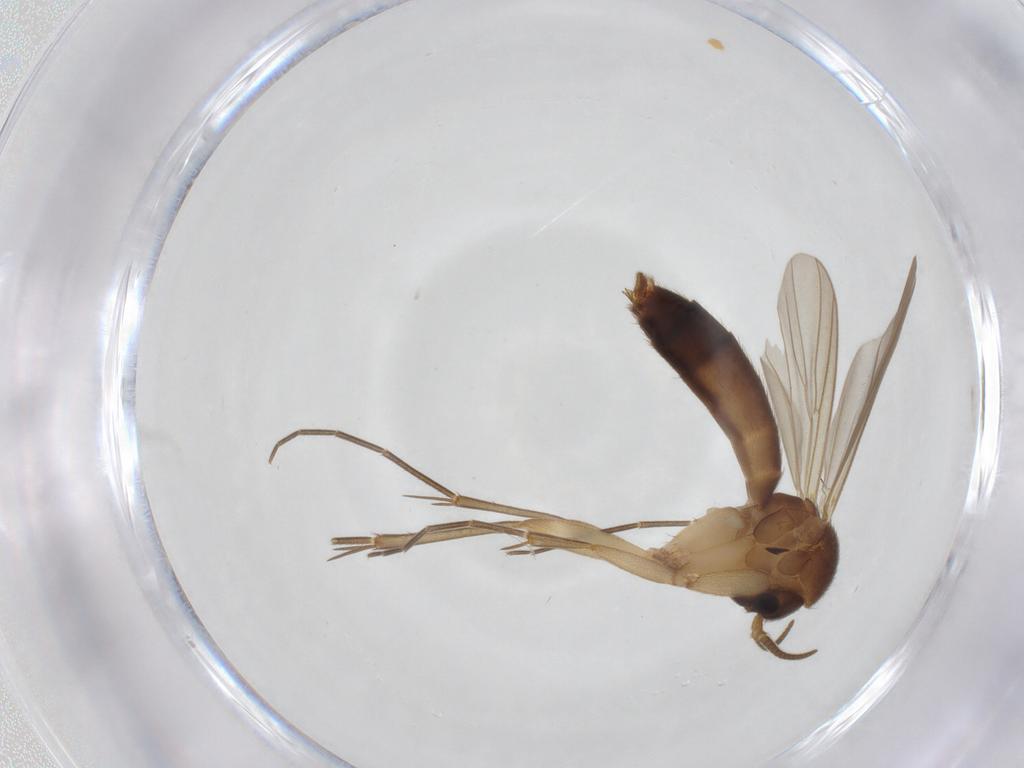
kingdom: Animalia
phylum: Arthropoda
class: Insecta
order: Diptera
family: Mycetophilidae
